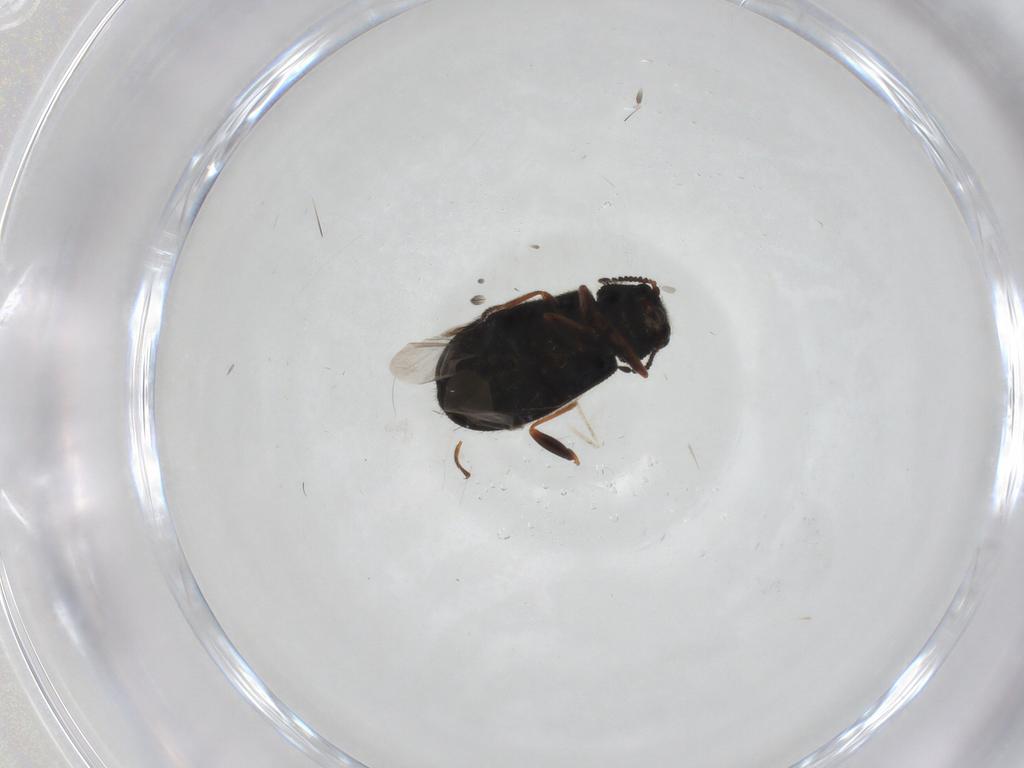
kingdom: Animalia
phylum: Arthropoda
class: Insecta
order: Coleoptera
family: Melyridae
